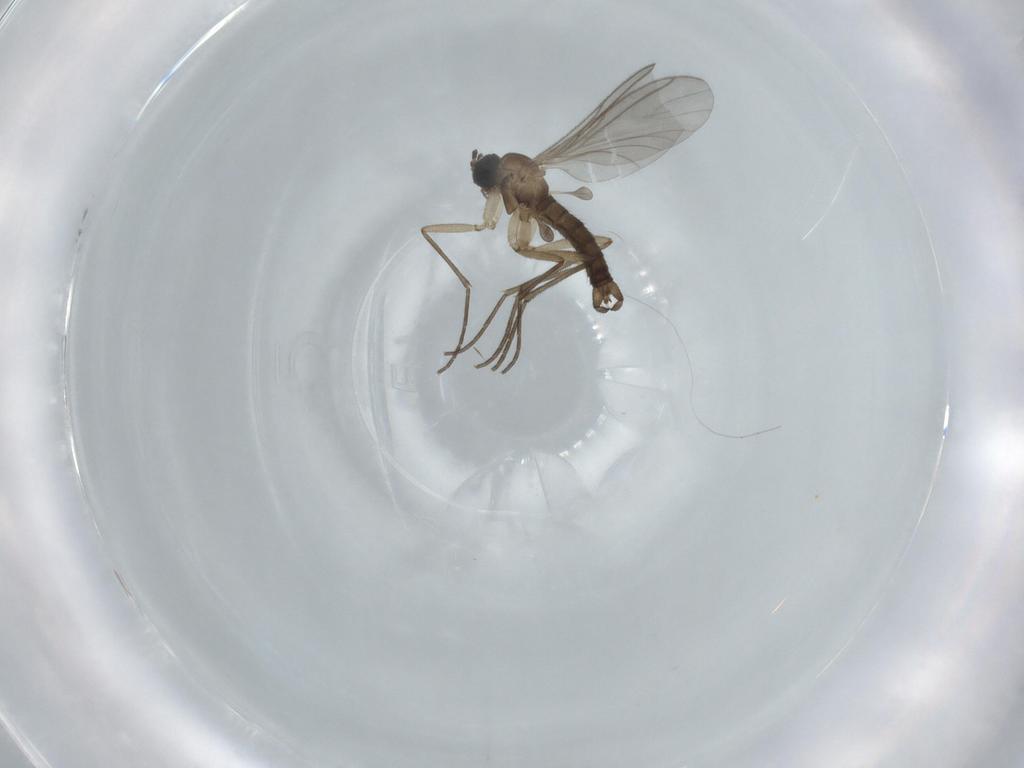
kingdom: Animalia
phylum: Arthropoda
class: Insecta
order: Diptera
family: Sciaridae
